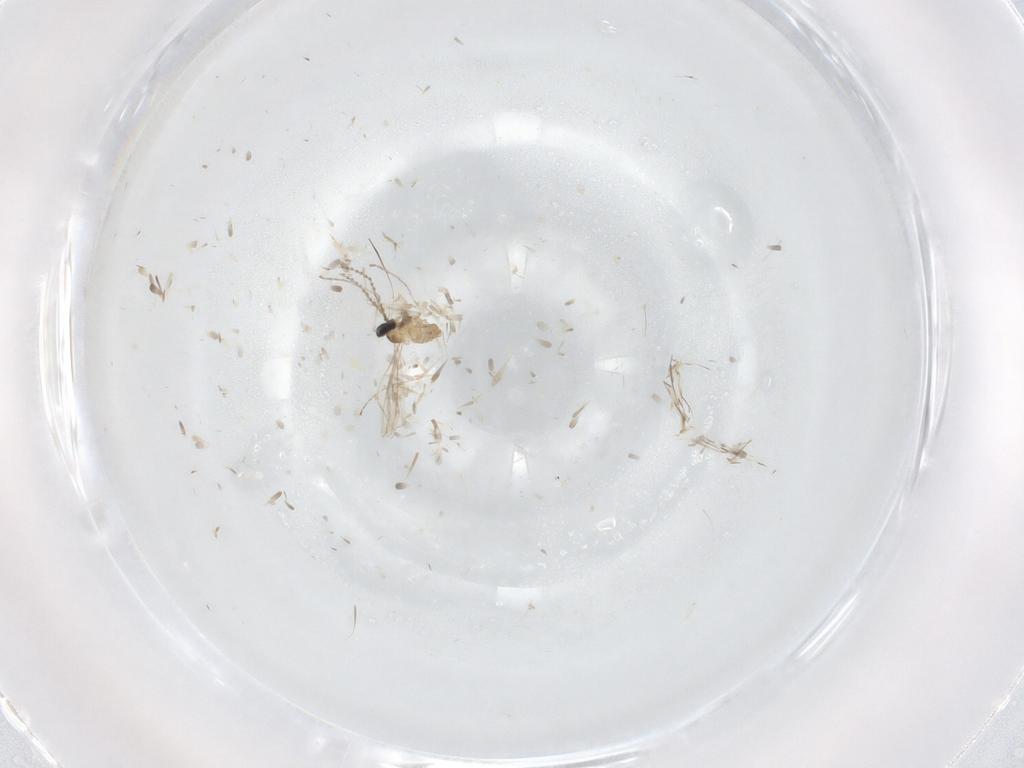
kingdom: Animalia
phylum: Arthropoda
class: Insecta
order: Diptera
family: Cecidomyiidae
